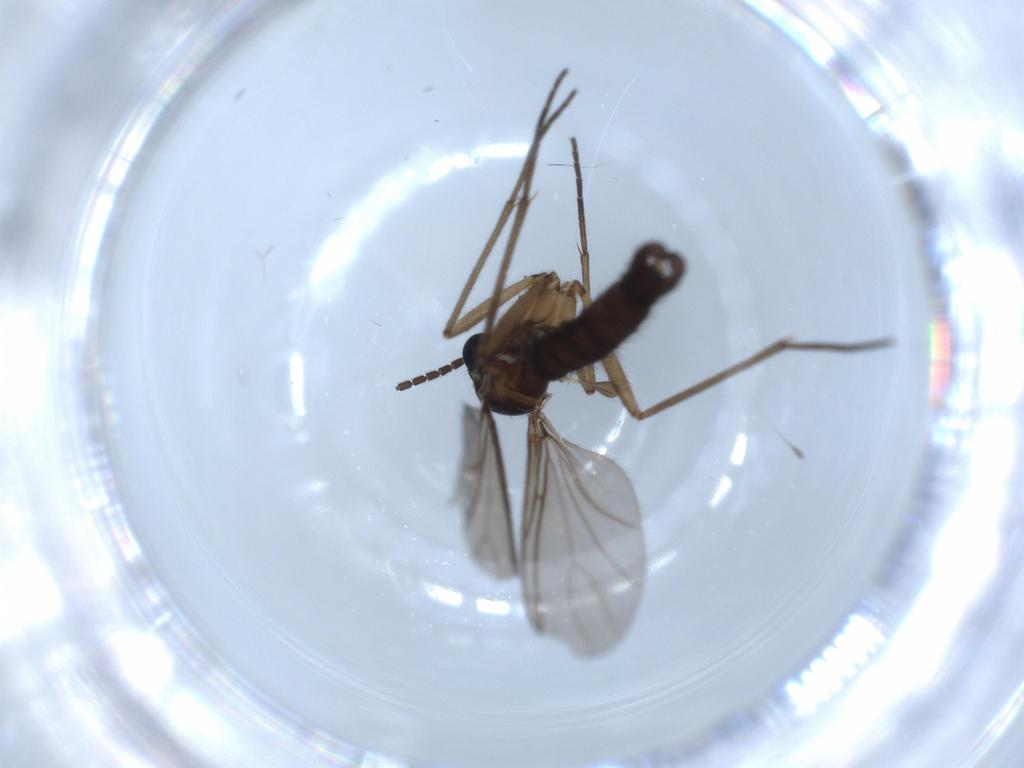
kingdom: Animalia
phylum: Arthropoda
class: Insecta
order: Diptera
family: Sciaridae
